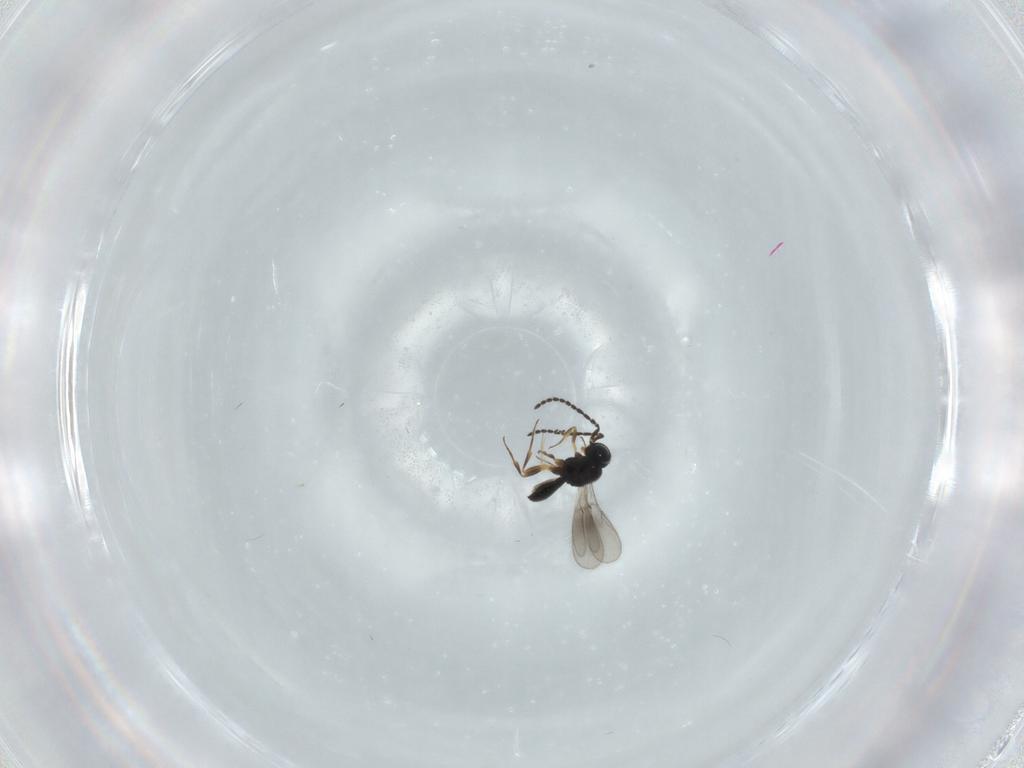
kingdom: Animalia
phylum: Arthropoda
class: Insecta
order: Hymenoptera
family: Scelionidae
